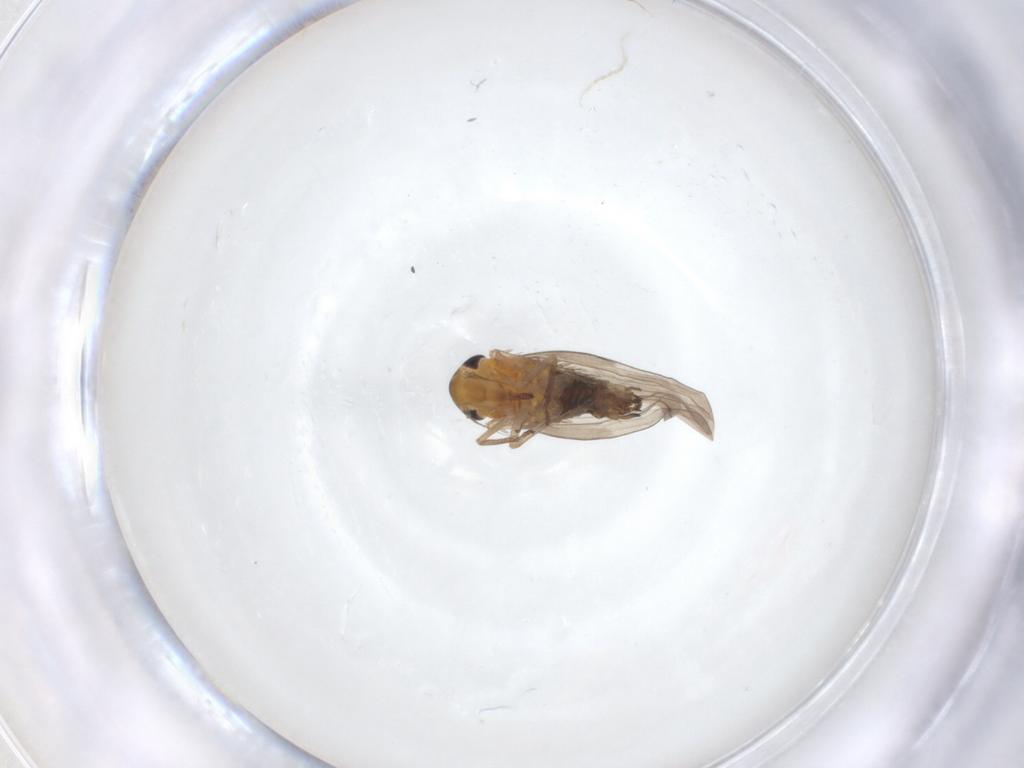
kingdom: Animalia
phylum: Arthropoda
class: Insecta
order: Hemiptera
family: Cicadellidae
